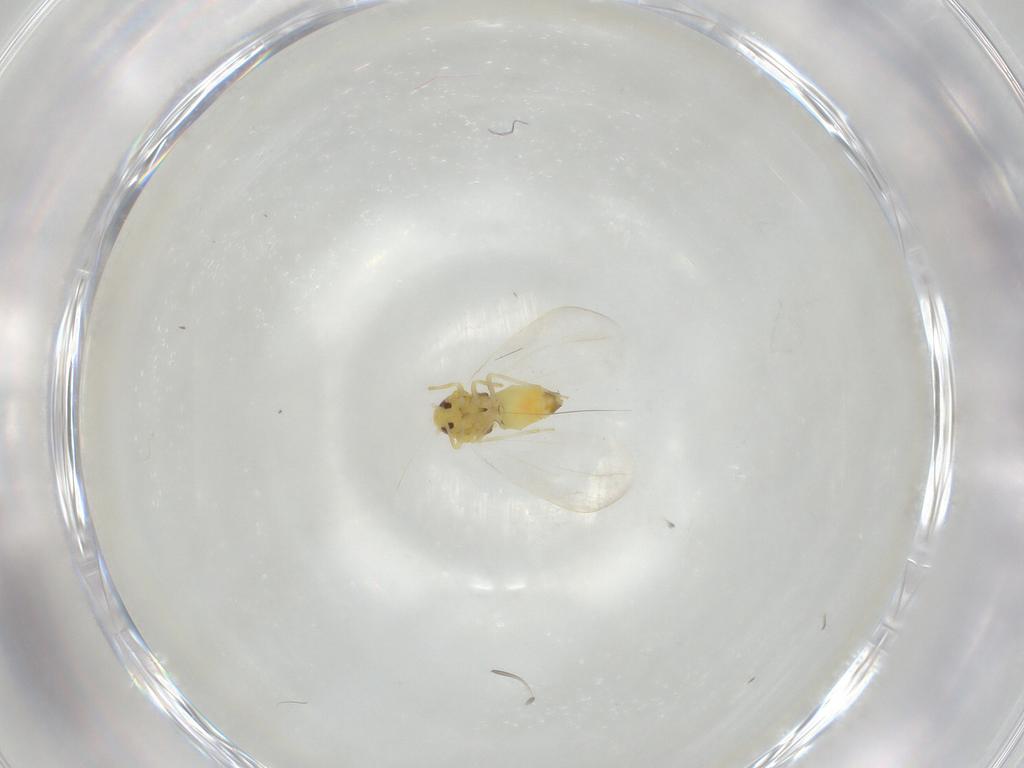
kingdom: Animalia
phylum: Arthropoda
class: Insecta
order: Hemiptera
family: Aleyrodidae
